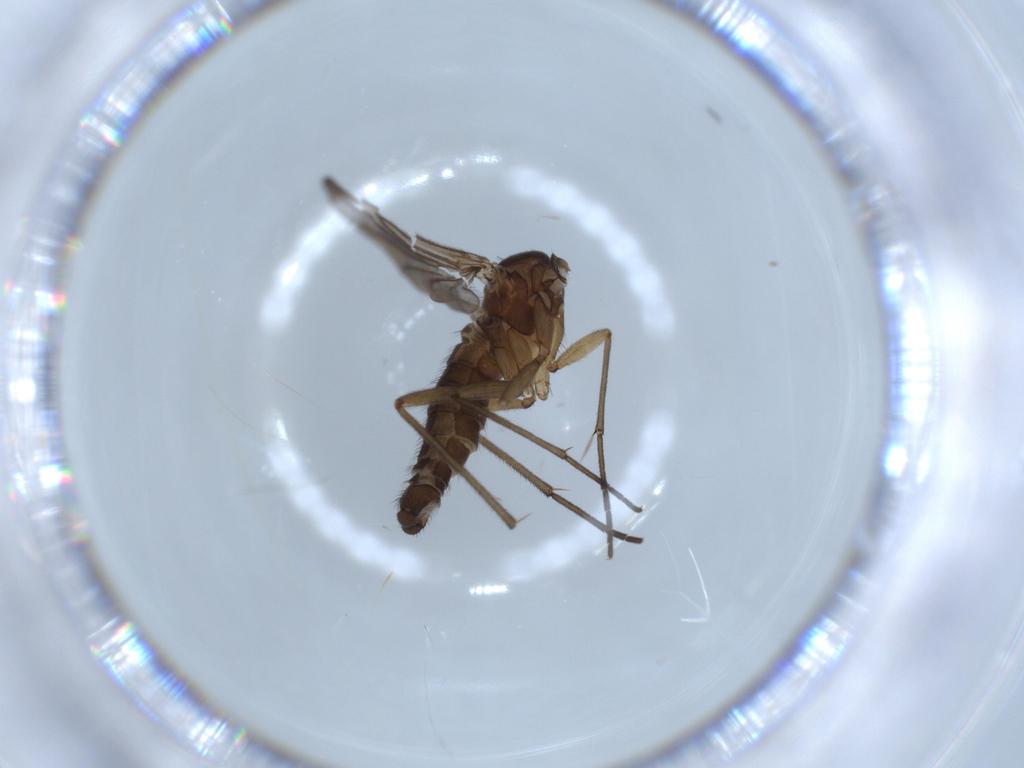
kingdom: Animalia
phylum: Arthropoda
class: Insecta
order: Diptera
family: Sciaridae
